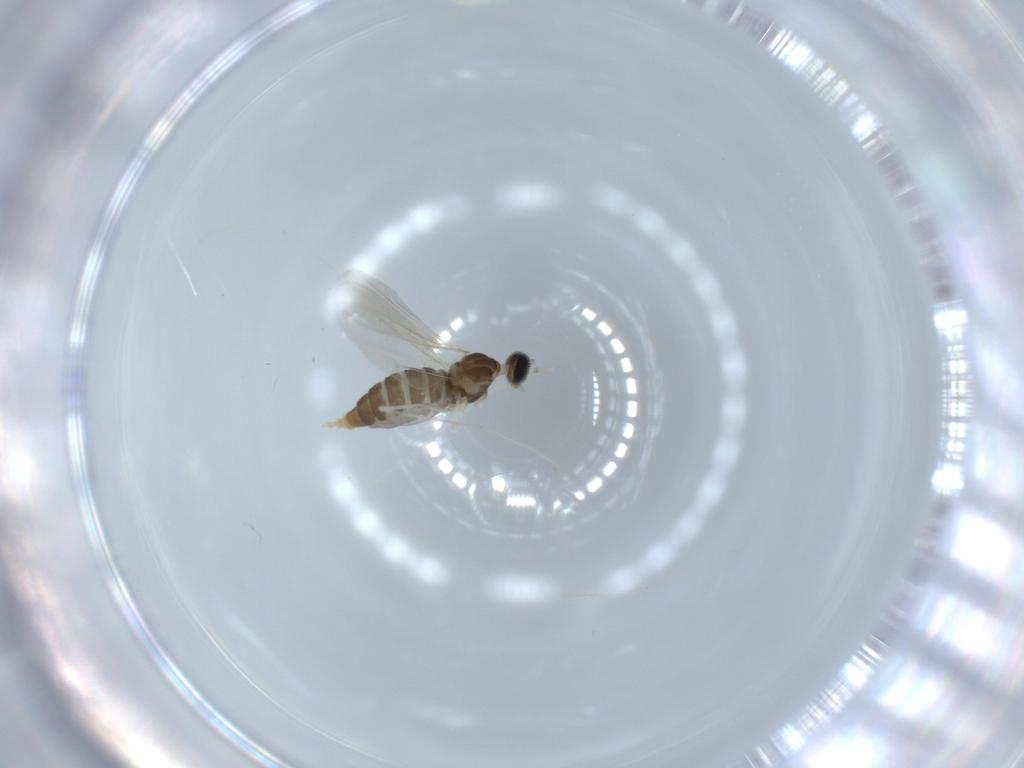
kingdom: Animalia
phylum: Arthropoda
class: Insecta
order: Diptera
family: Cecidomyiidae
